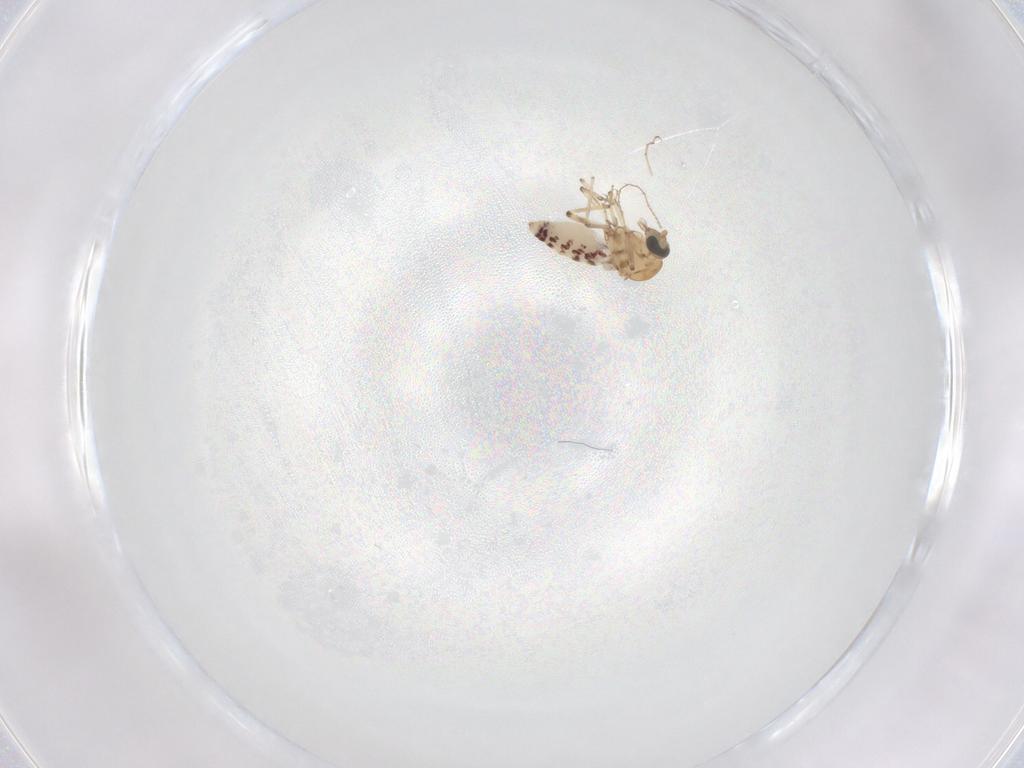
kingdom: Animalia
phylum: Arthropoda
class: Insecta
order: Diptera
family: Ceratopogonidae
